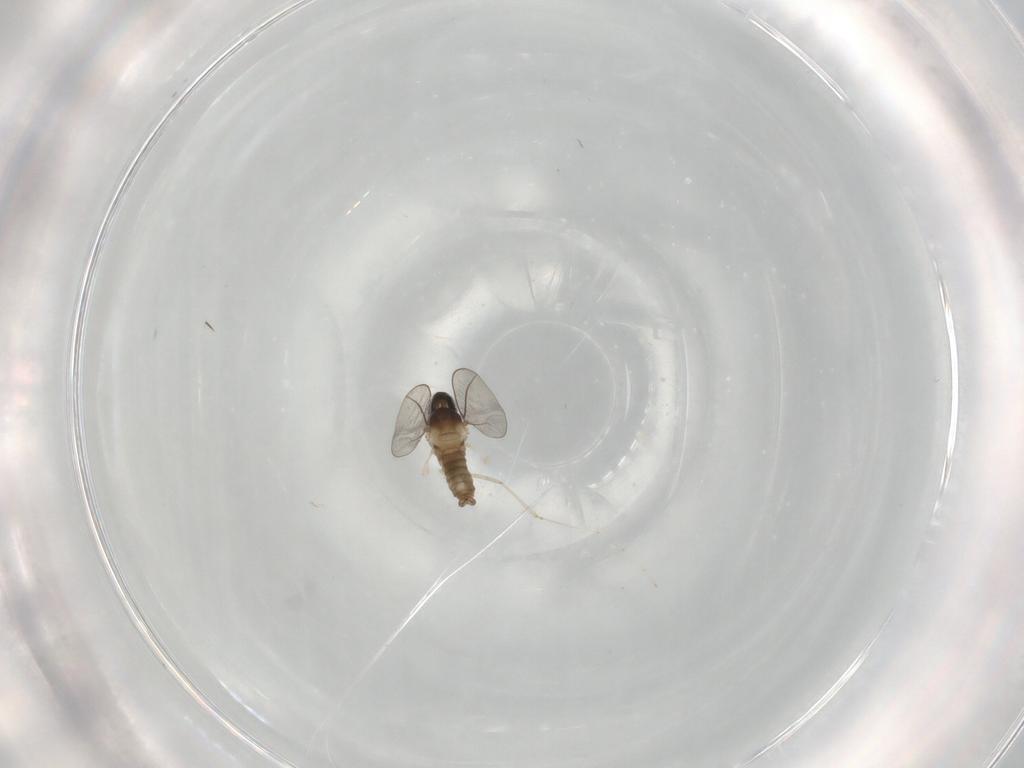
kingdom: Animalia
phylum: Arthropoda
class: Insecta
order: Diptera
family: Cecidomyiidae
